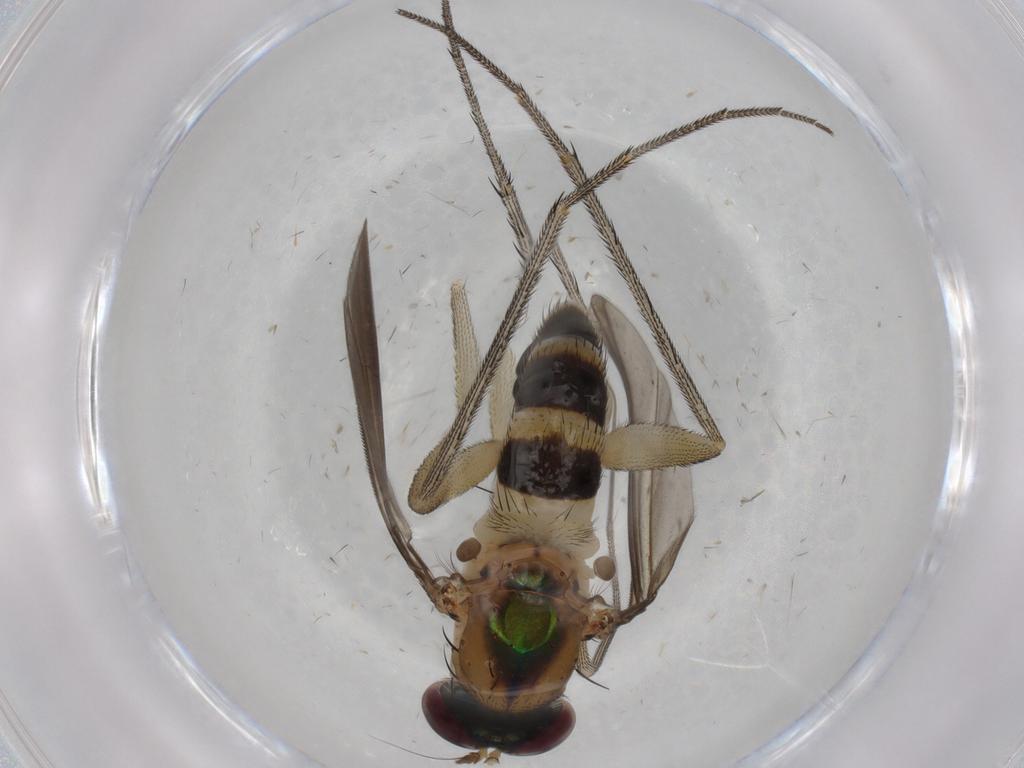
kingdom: Animalia
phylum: Arthropoda
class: Insecta
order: Diptera
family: Dolichopodidae
